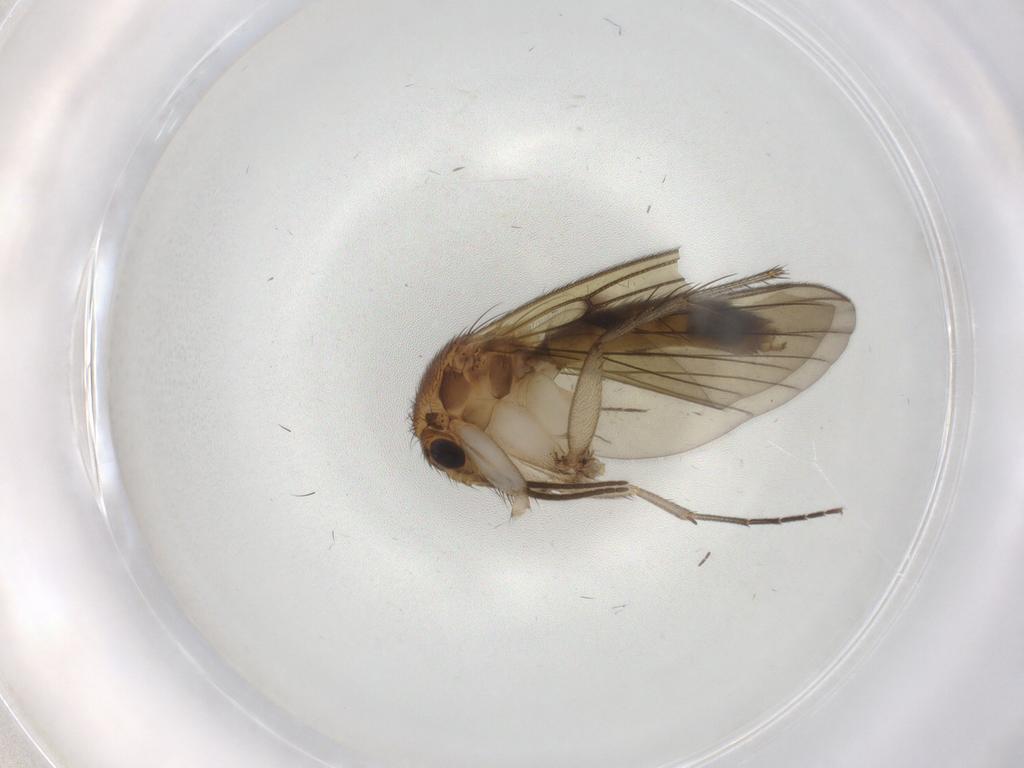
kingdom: Animalia
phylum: Arthropoda
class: Insecta
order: Diptera
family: Mycetophilidae
